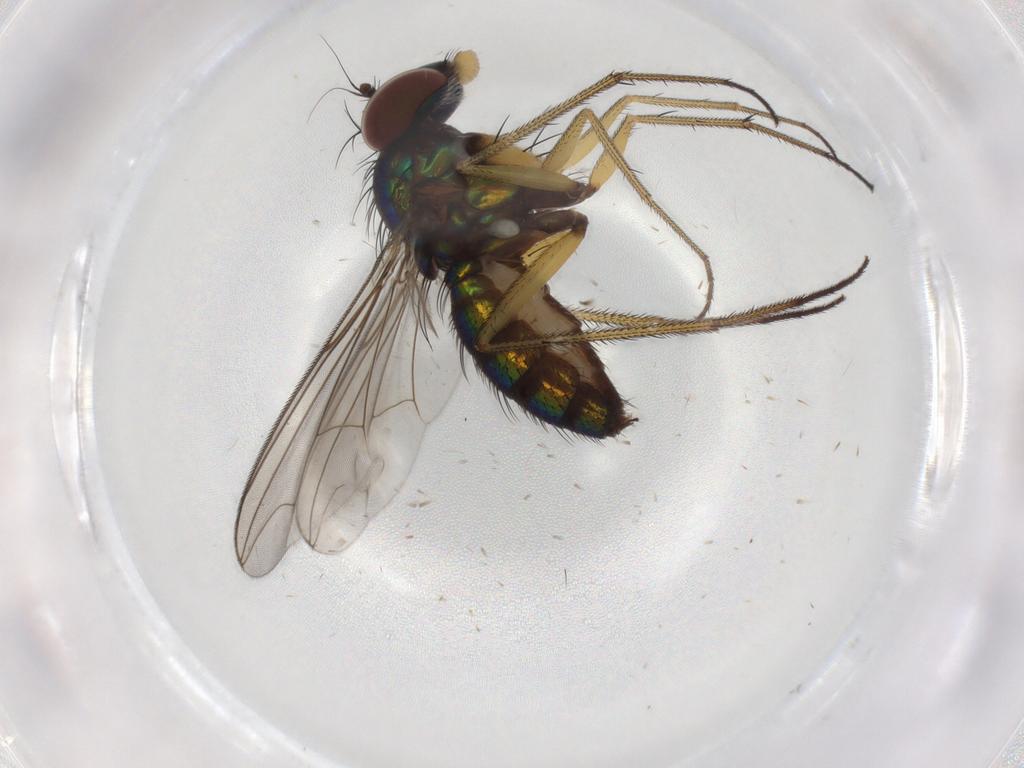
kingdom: Animalia
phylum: Arthropoda
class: Insecta
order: Diptera
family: Dolichopodidae
